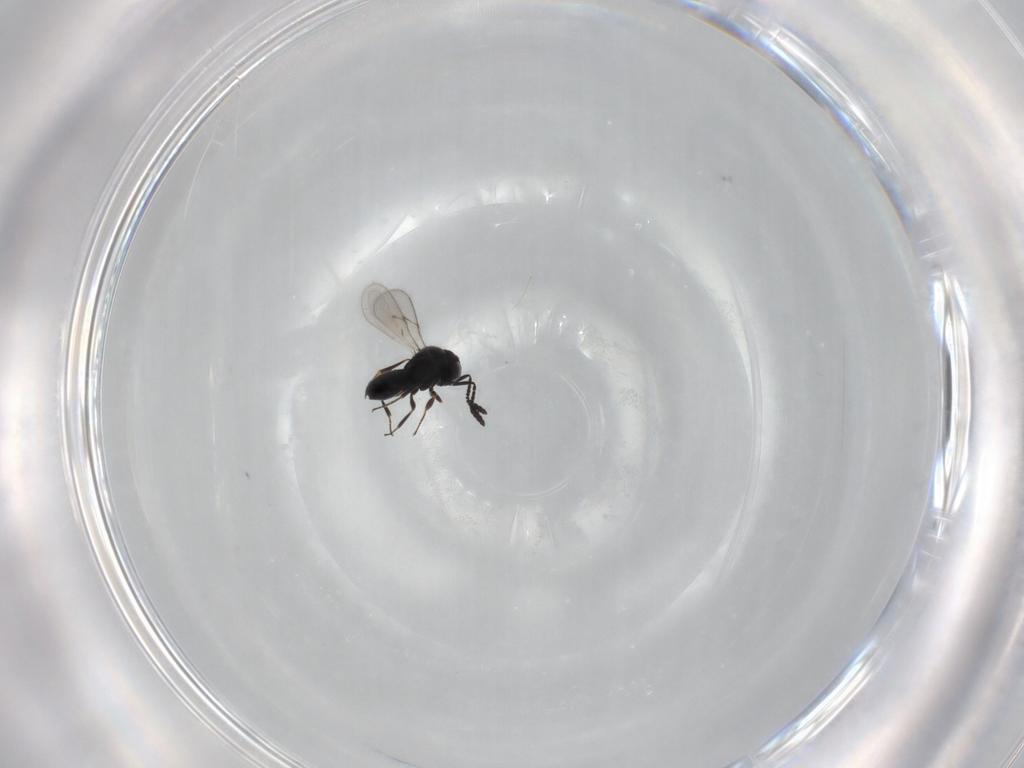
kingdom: Animalia
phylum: Arthropoda
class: Insecta
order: Hymenoptera
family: Scelionidae
